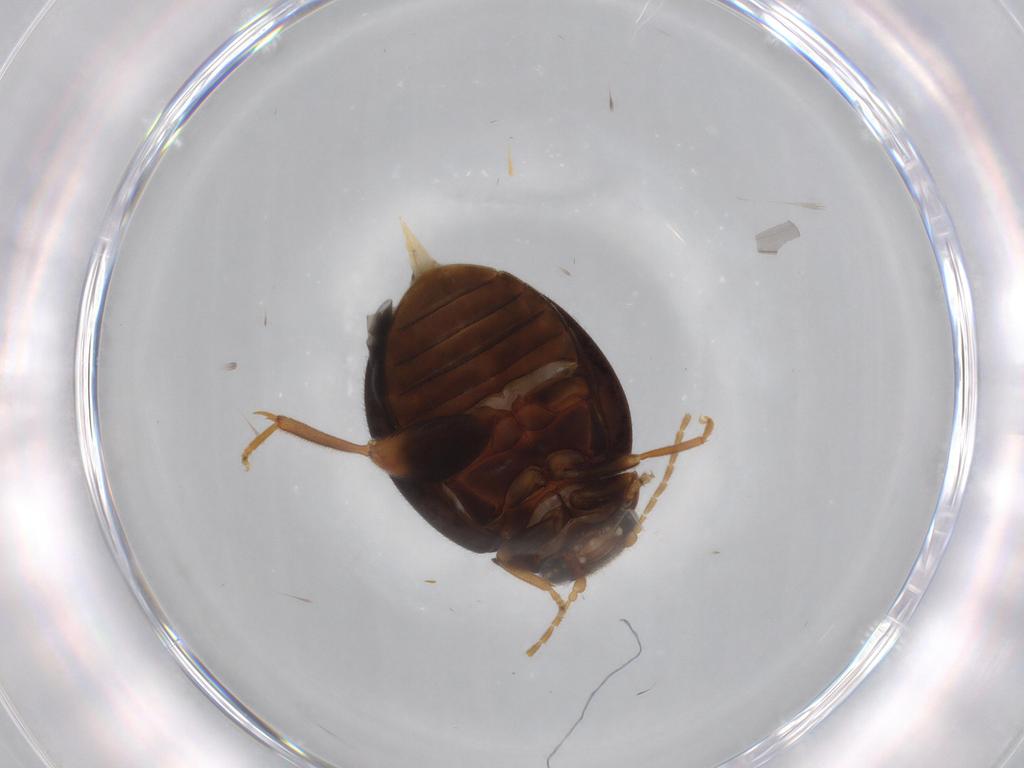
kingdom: Animalia
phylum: Arthropoda
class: Insecta
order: Coleoptera
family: Scirtidae
